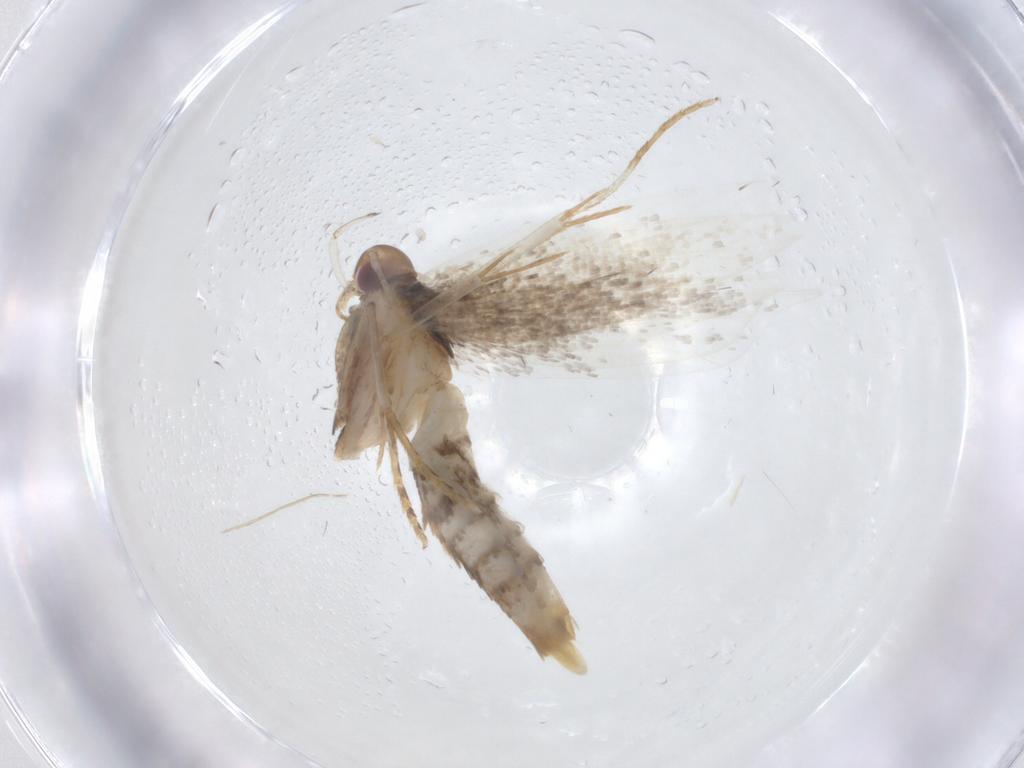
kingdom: Animalia
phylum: Arthropoda
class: Insecta
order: Lepidoptera
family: Gelechiidae
